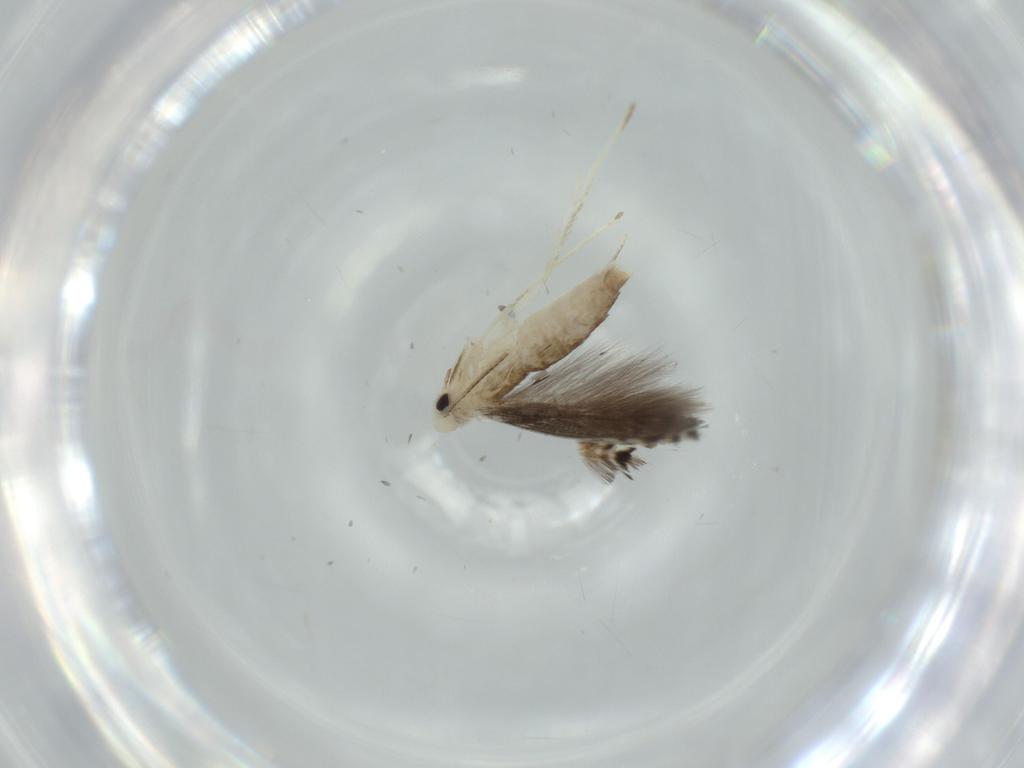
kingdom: Animalia
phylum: Arthropoda
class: Insecta
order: Lepidoptera
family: Gracillariidae
